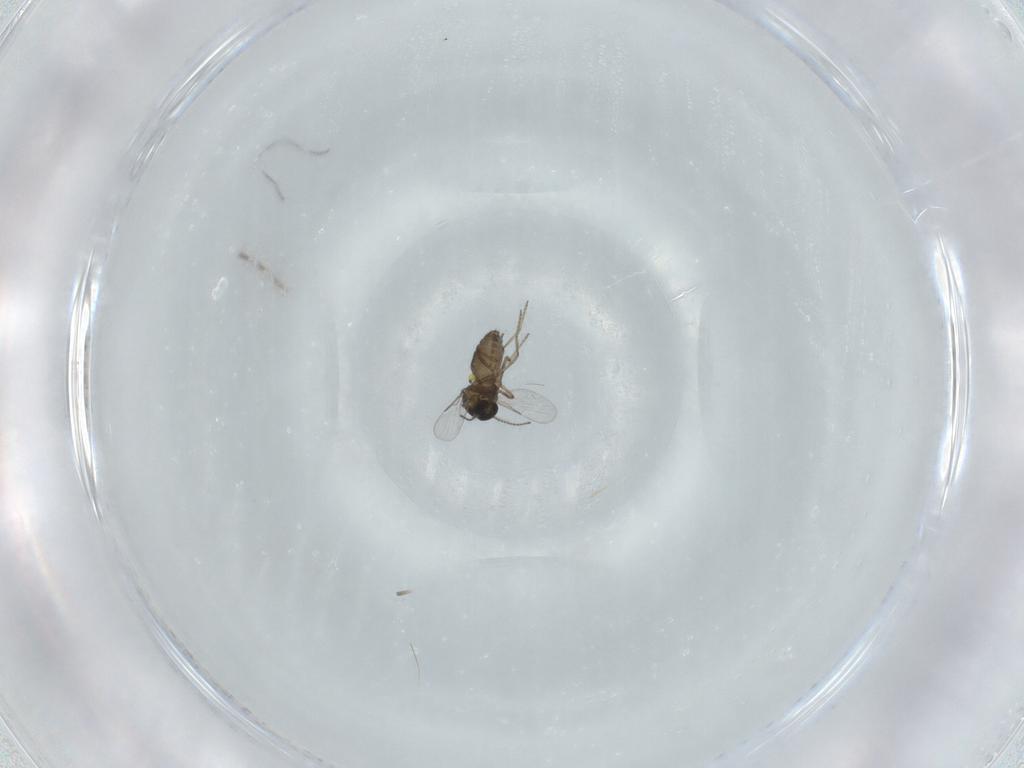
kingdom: Animalia
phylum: Arthropoda
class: Insecta
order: Diptera
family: Ceratopogonidae
